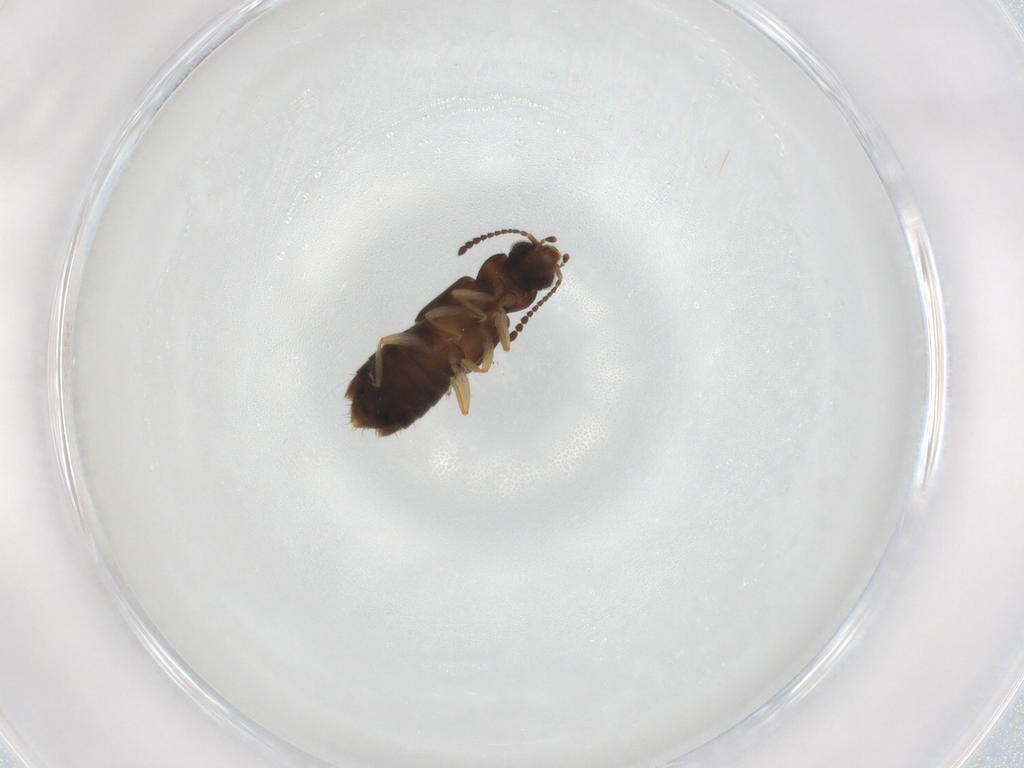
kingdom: Animalia
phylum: Arthropoda
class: Insecta
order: Coleoptera
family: Staphylinidae
